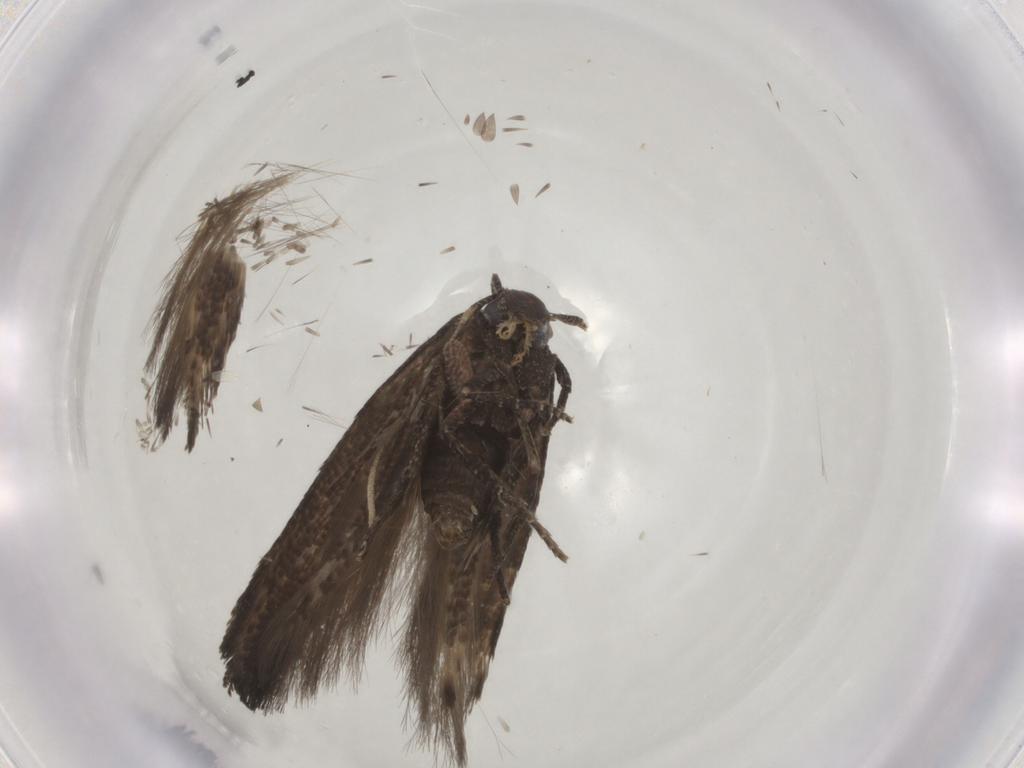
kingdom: Animalia
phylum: Arthropoda
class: Insecta
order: Lepidoptera
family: Cosmopterigidae
